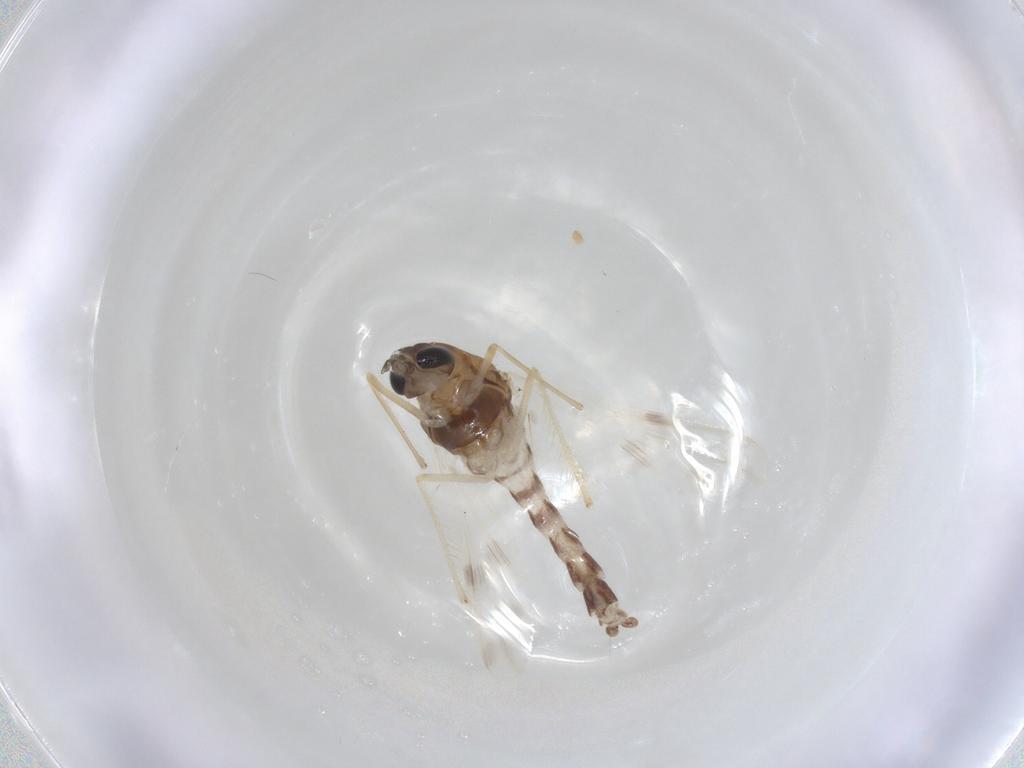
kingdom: Animalia
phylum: Arthropoda
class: Insecta
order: Diptera
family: Chironomidae
